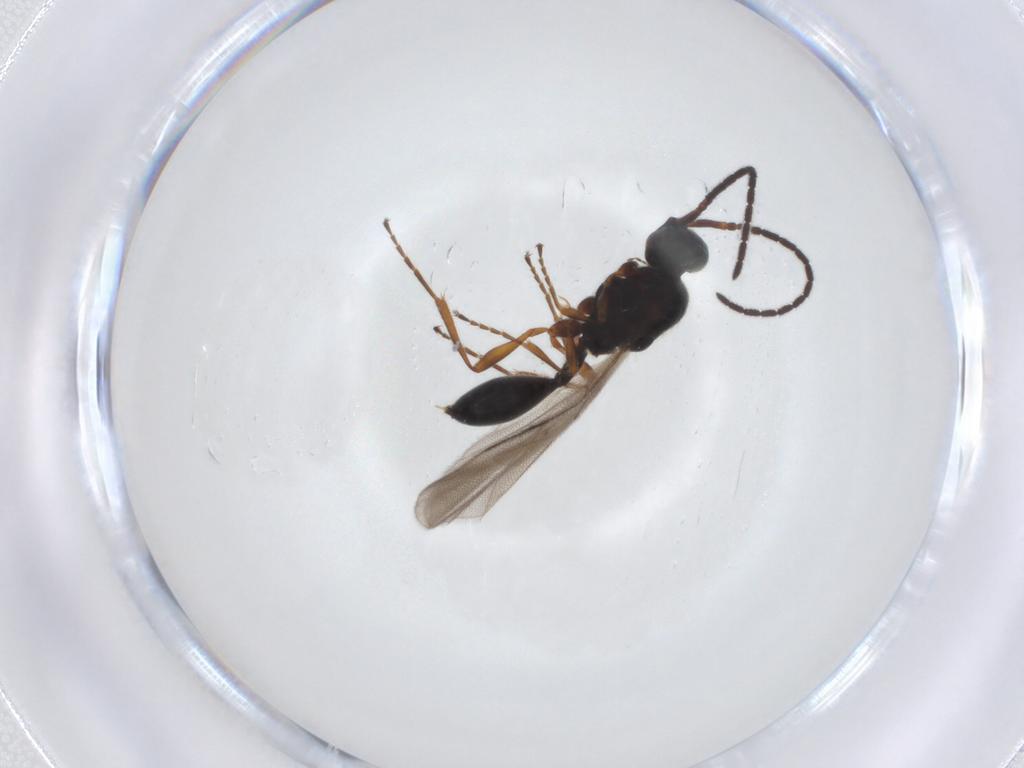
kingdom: Animalia
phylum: Arthropoda
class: Insecta
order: Hymenoptera
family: Diapriidae
